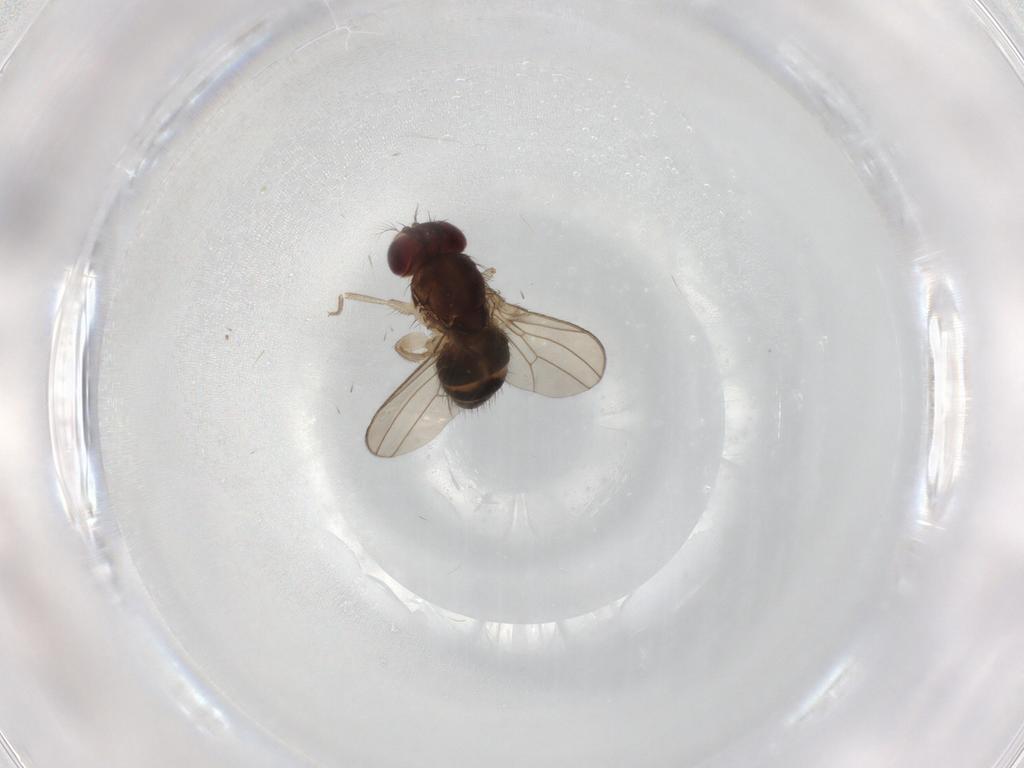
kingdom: Animalia
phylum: Arthropoda
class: Insecta
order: Diptera
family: Drosophilidae
